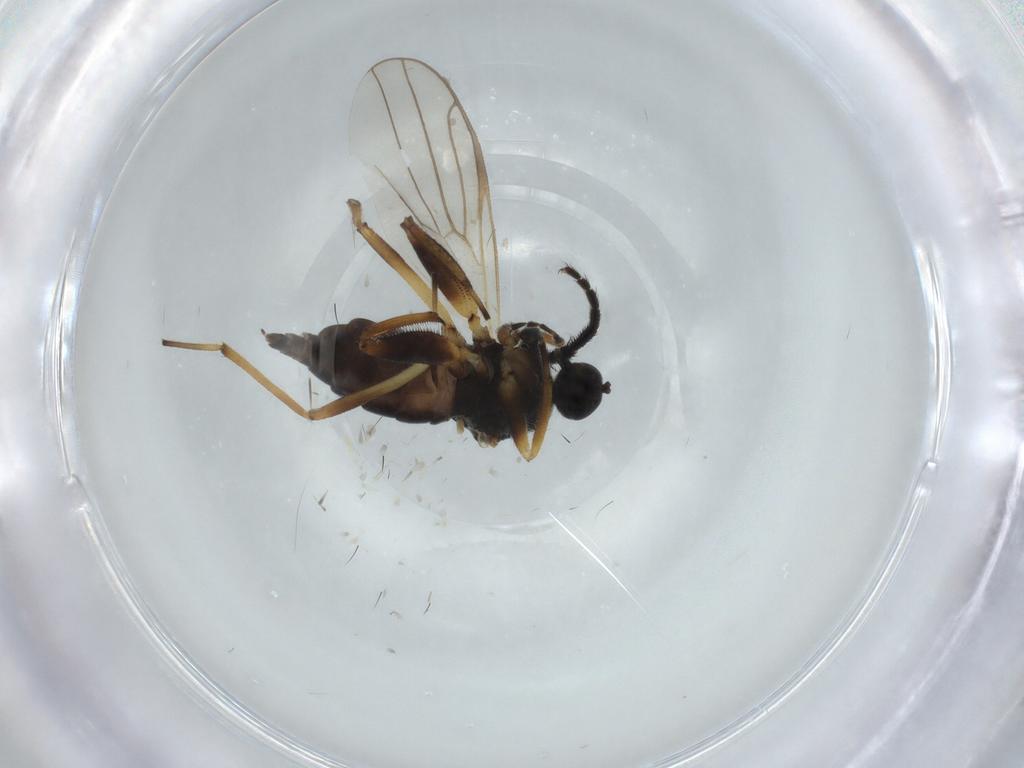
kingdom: Animalia
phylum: Arthropoda
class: Insecta
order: Diptera
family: Hybotidae
